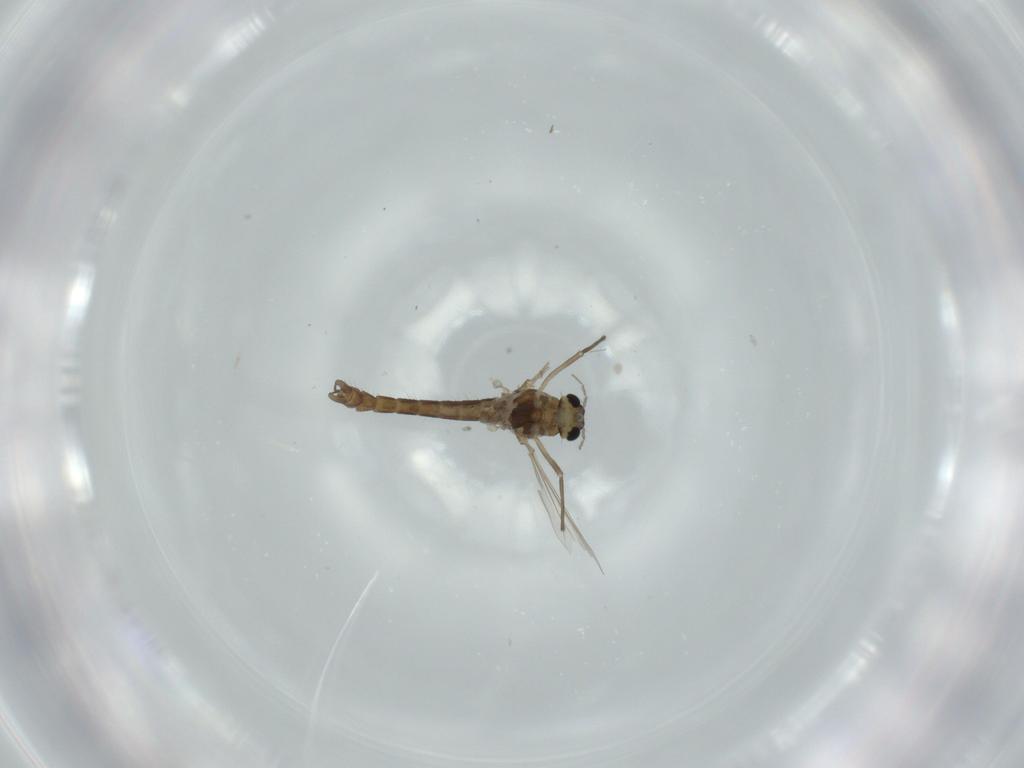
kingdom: Animalia
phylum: Arthropoda
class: Insecta
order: Diptera
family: Chironomidae
